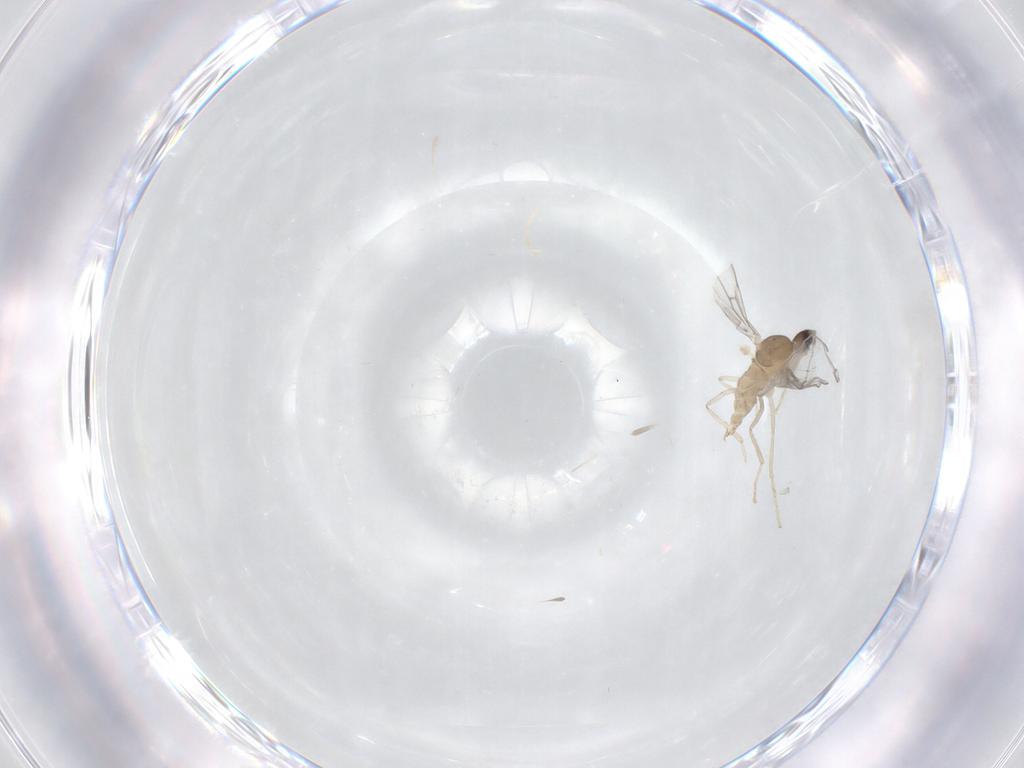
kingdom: Animalia
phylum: Arthropoda
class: Insecta
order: Diptera
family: Cecidomyiidae
